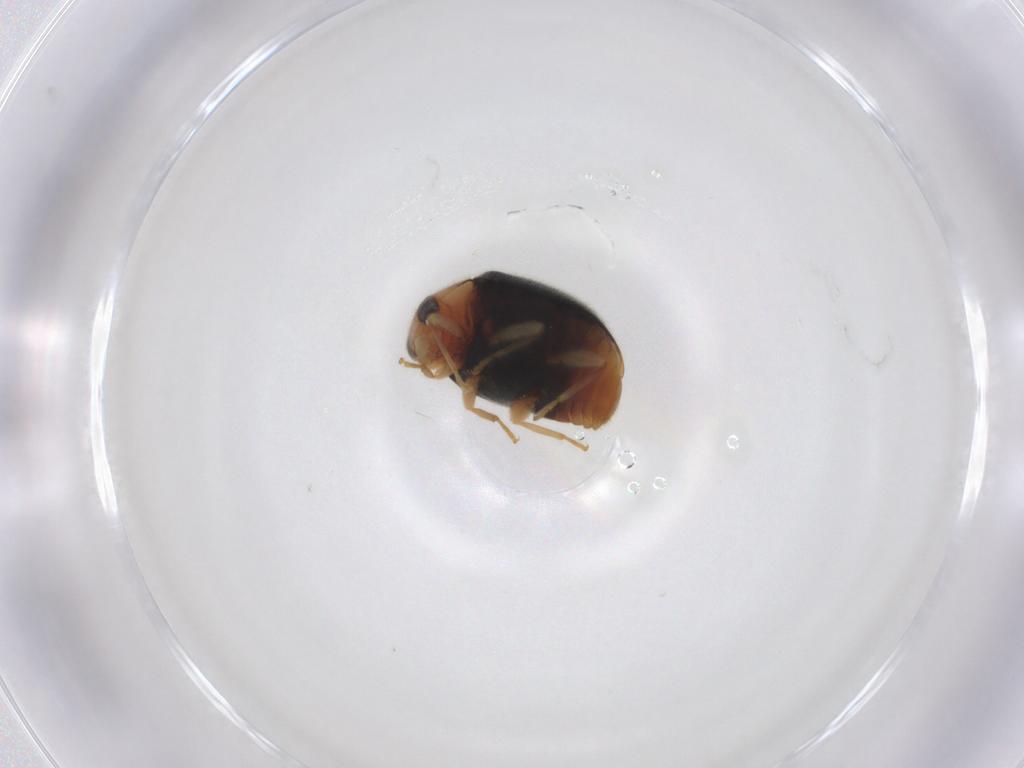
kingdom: Animalia
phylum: Arthropoda
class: Insecta
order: Coleoptera
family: Coccinellidae
